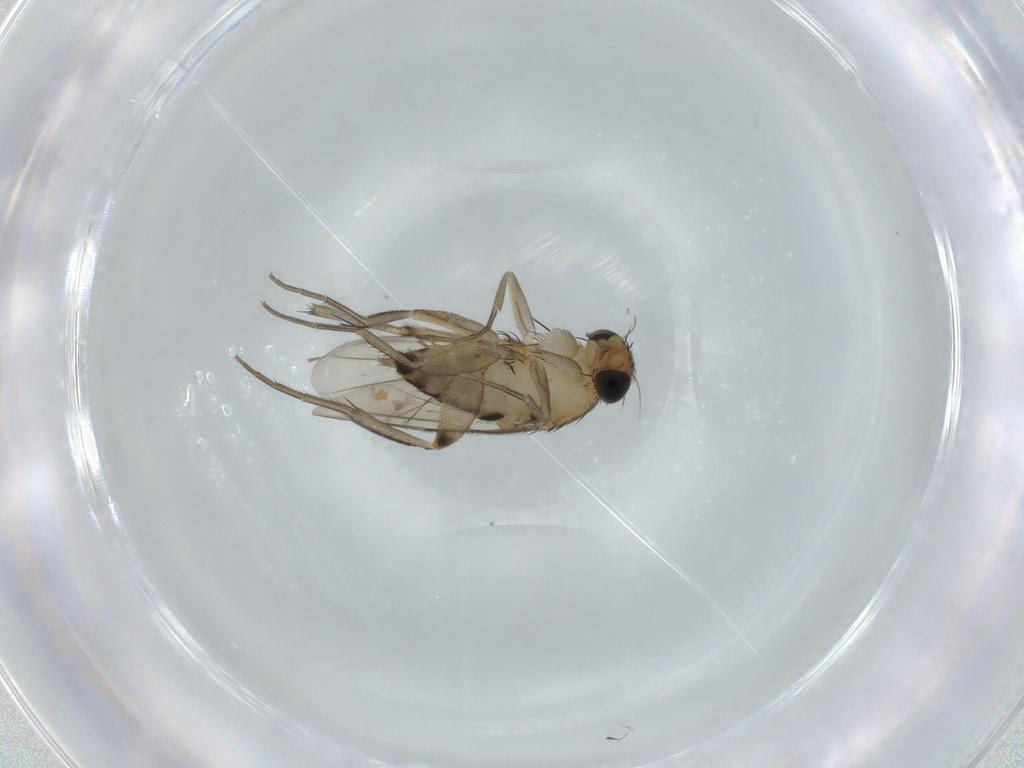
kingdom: Animalia
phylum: Arthropoda
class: Insecta
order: Diptera
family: Phoridae
